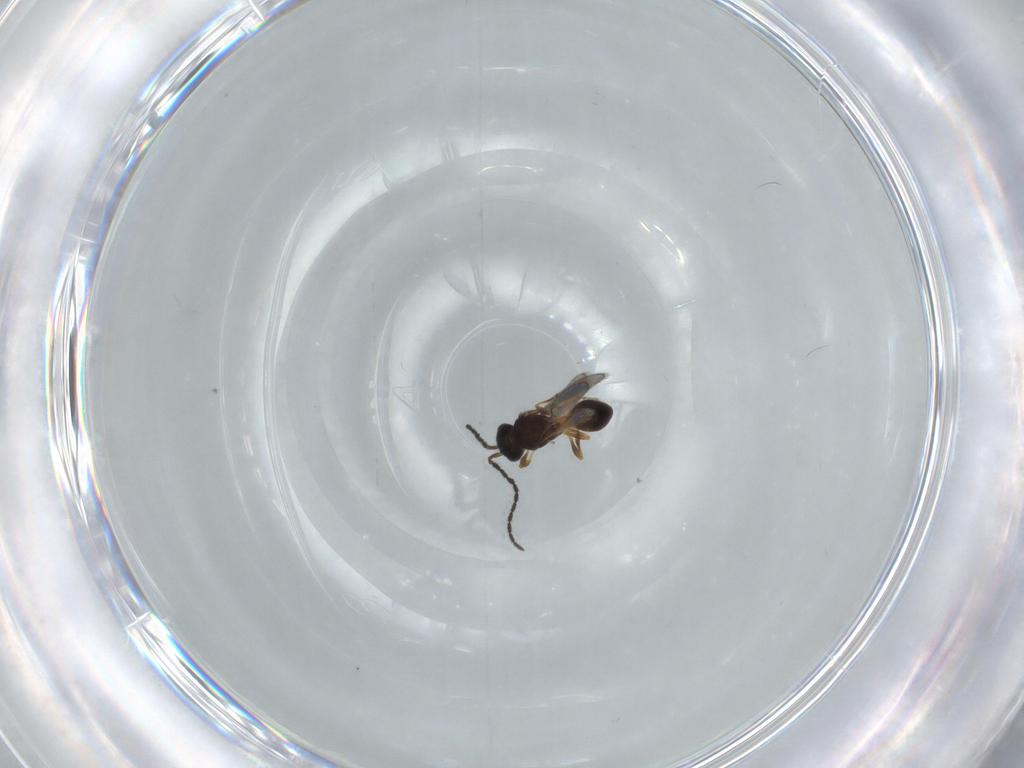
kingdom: Animalia
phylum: Arthropoda
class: Insecta
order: Hymenoptera
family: Scelionidae
